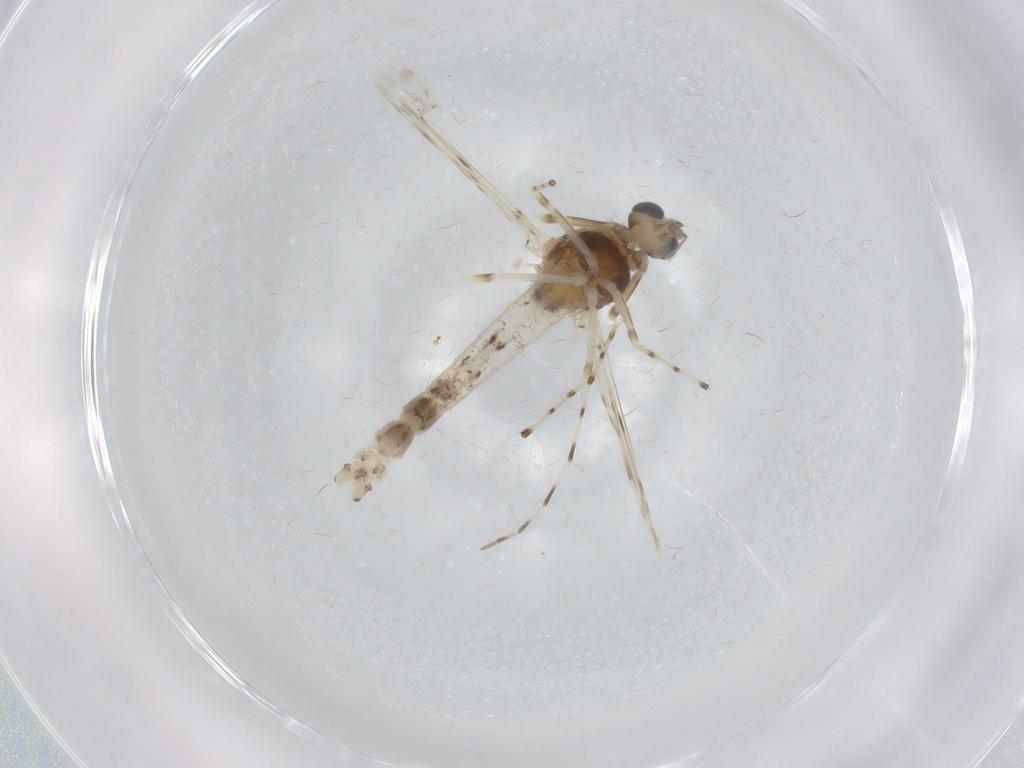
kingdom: Animalia
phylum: Arthropoda
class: Insecta
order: Diptera
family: Chironomidae
